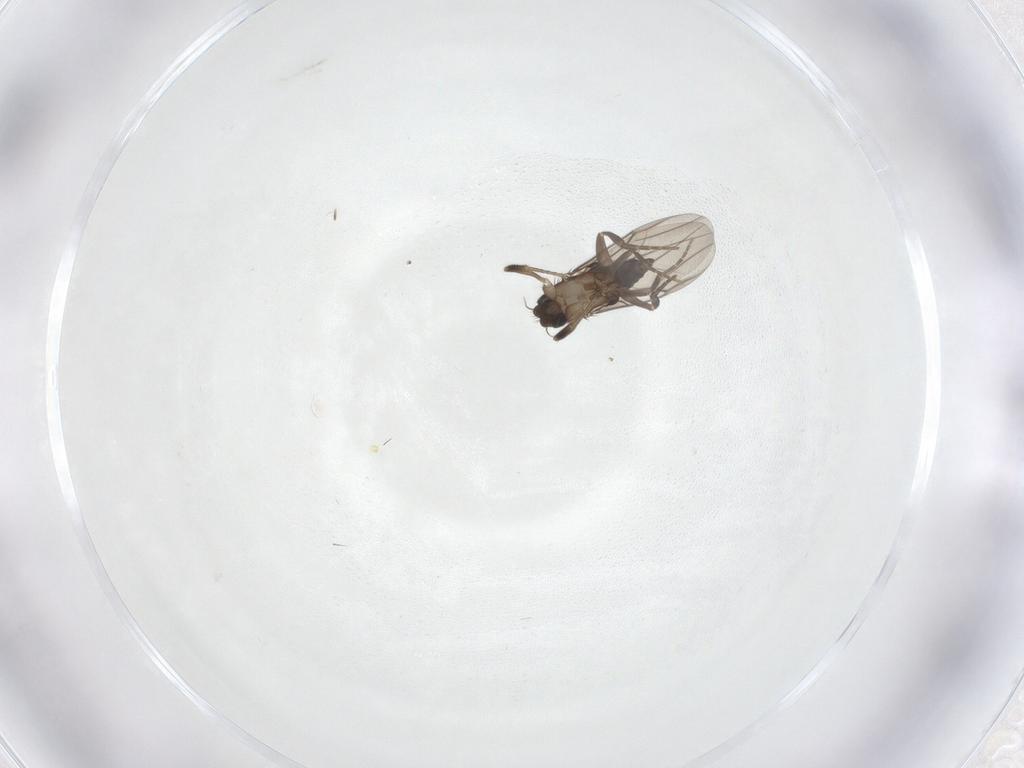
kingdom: Animalia
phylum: Arthropoda
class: Insecta
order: Diptera
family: Phoridae
